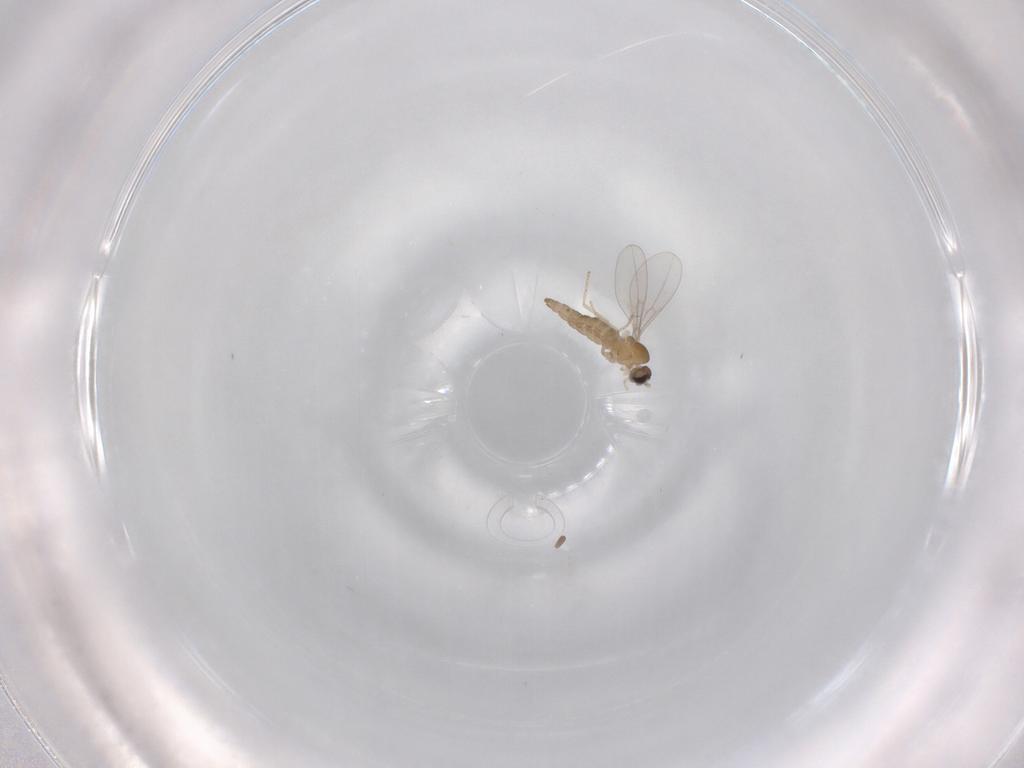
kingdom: Animalia
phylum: Arthropoda
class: Insecta
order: Diptera
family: Cecidomyiidae
